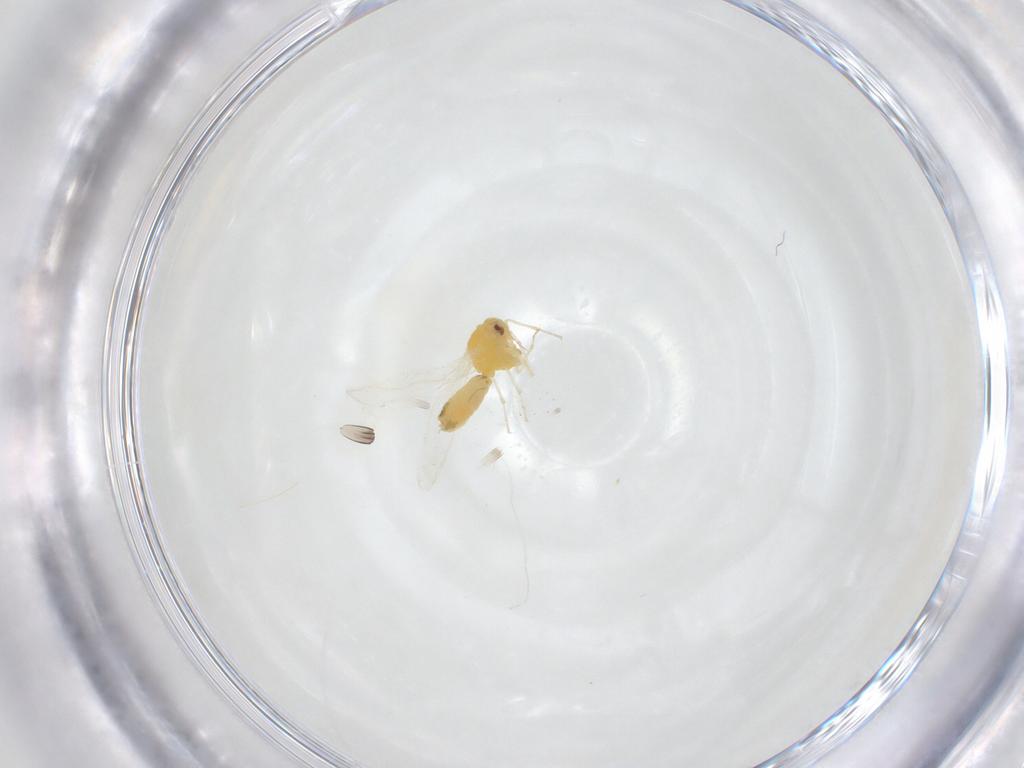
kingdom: Animalia
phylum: Arthropoda
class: Insecta
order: Hemiptera
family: Aleyrodidae
